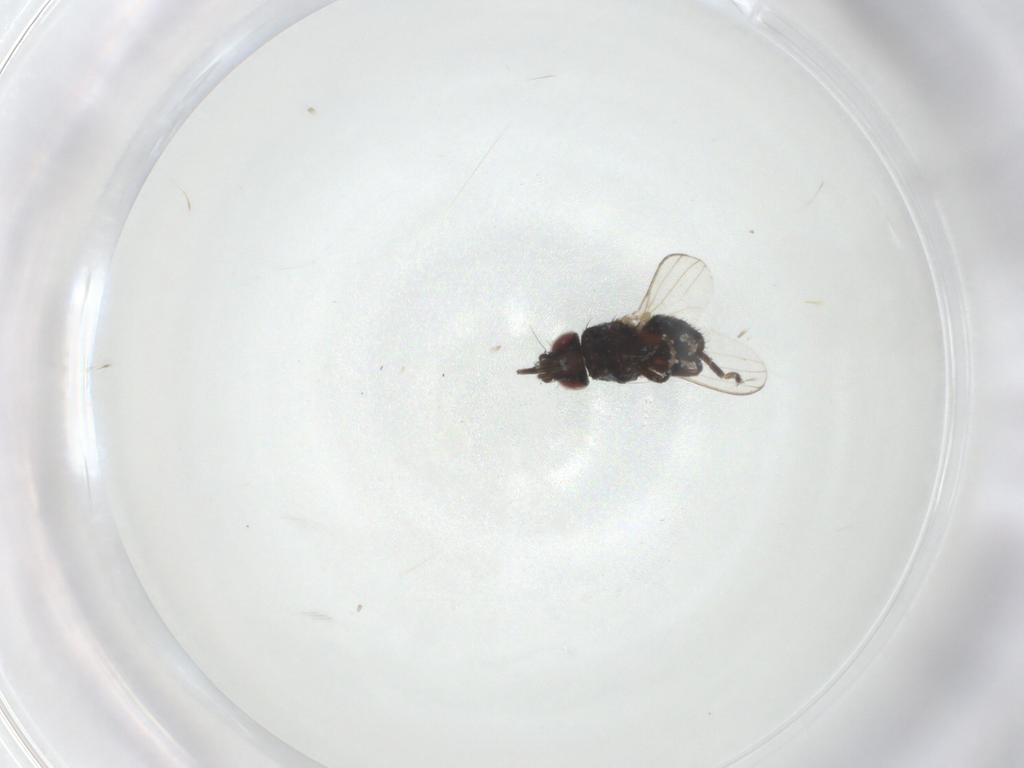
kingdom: Animalia
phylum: Arthropoda
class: Insecta
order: Diptera
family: Milichiidae
